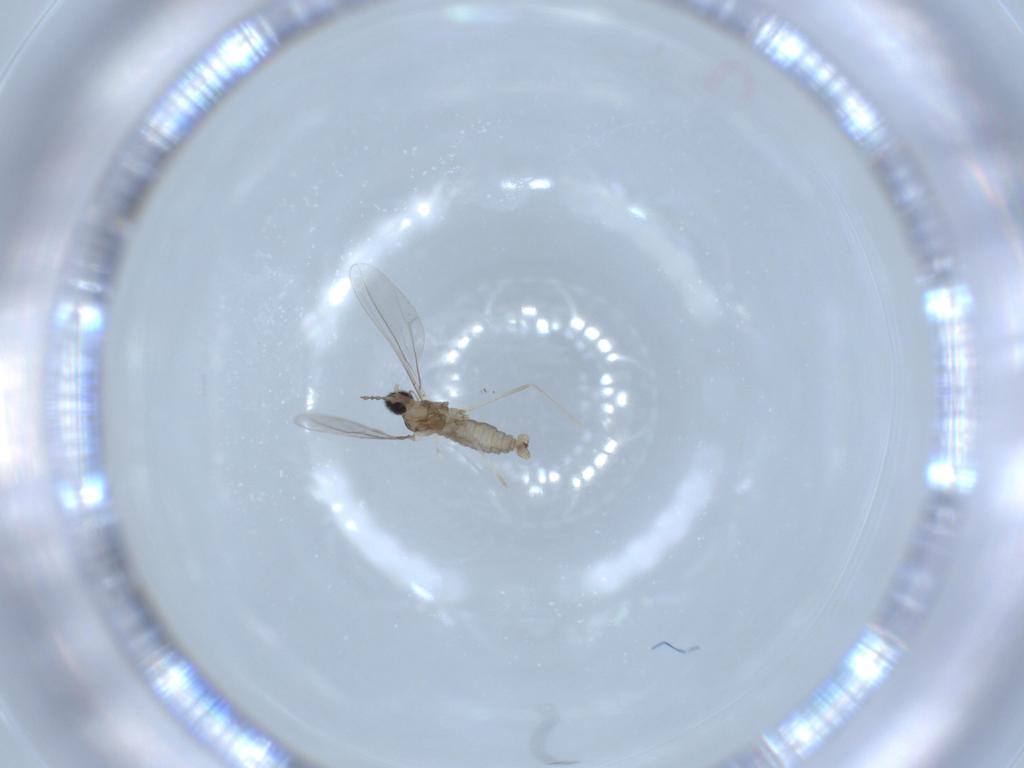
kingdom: Animalia
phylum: Arthropoda
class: Insecta
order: Diptera
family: Cecidomyiidae
